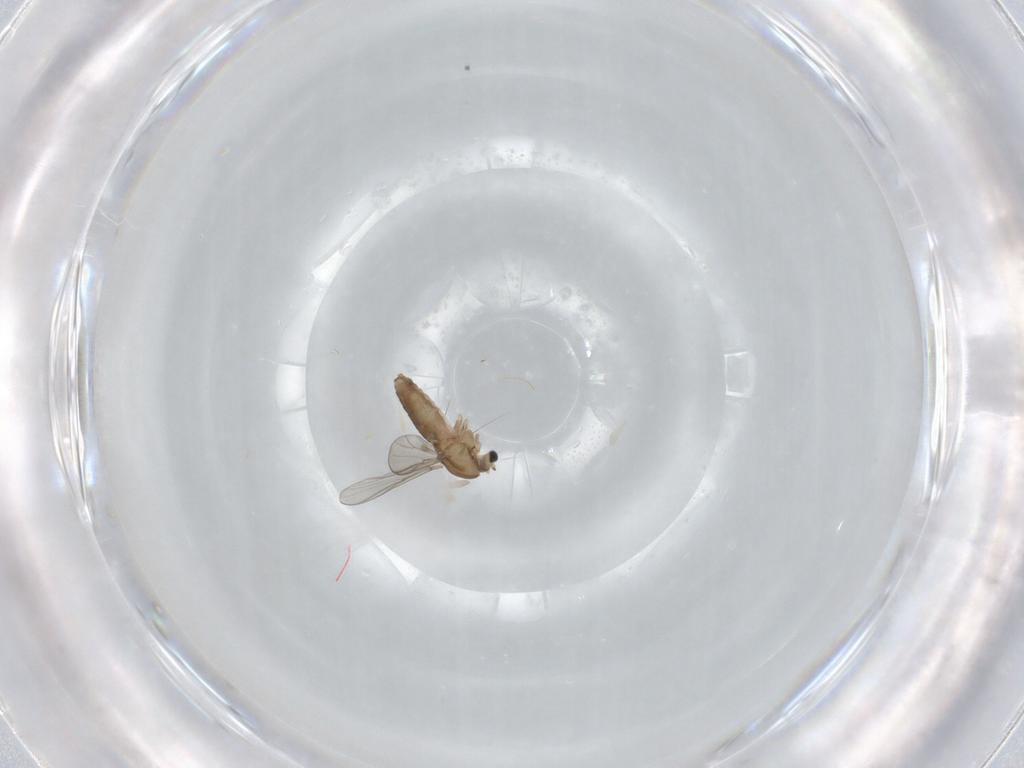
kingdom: Animalia
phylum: Arthropoda
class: Insecta
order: Diptera
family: Chironomidae
